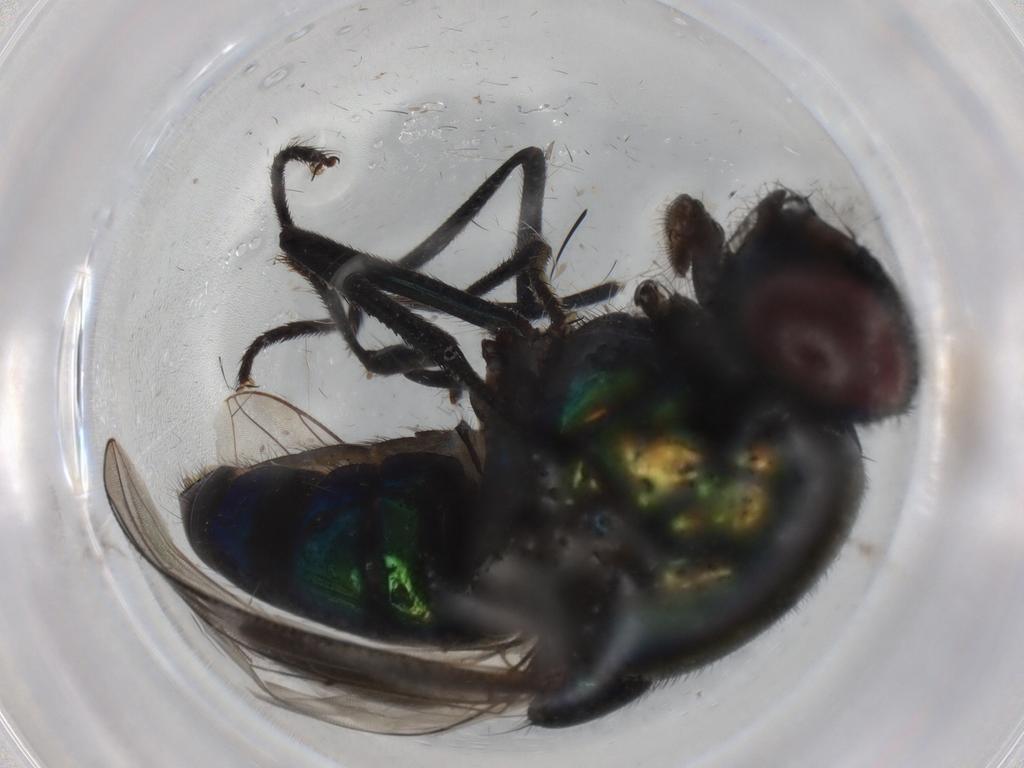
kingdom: Animalia
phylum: Arthropoda
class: Insecta
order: Diptera
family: Muscidae
